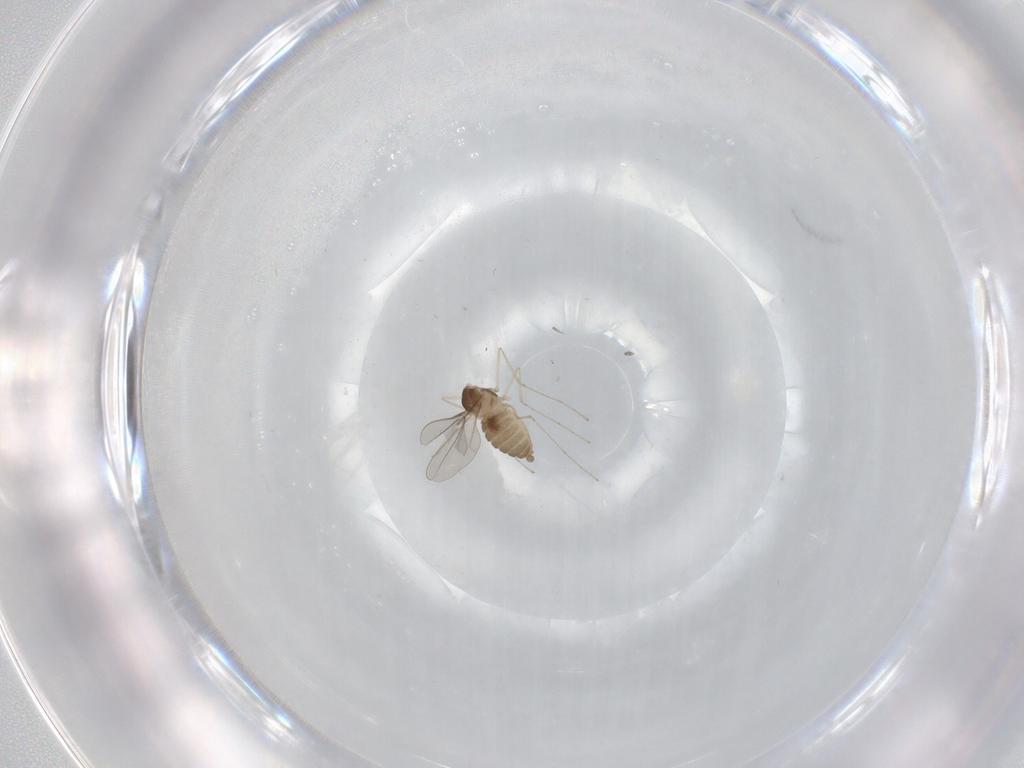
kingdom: Animalia
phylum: Arthropoda
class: Insecta
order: Diptera
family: Cecidomyiidae
